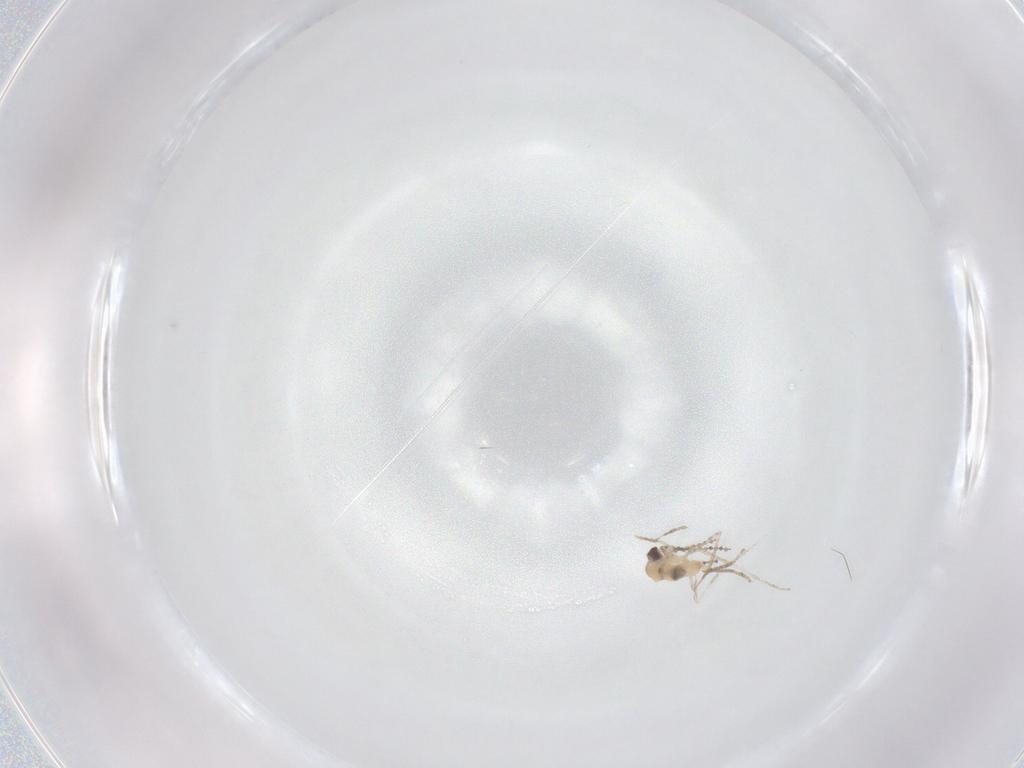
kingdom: Animalia
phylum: Arthropoda
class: Insecta
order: Diptera
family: Cecidomyiidae
